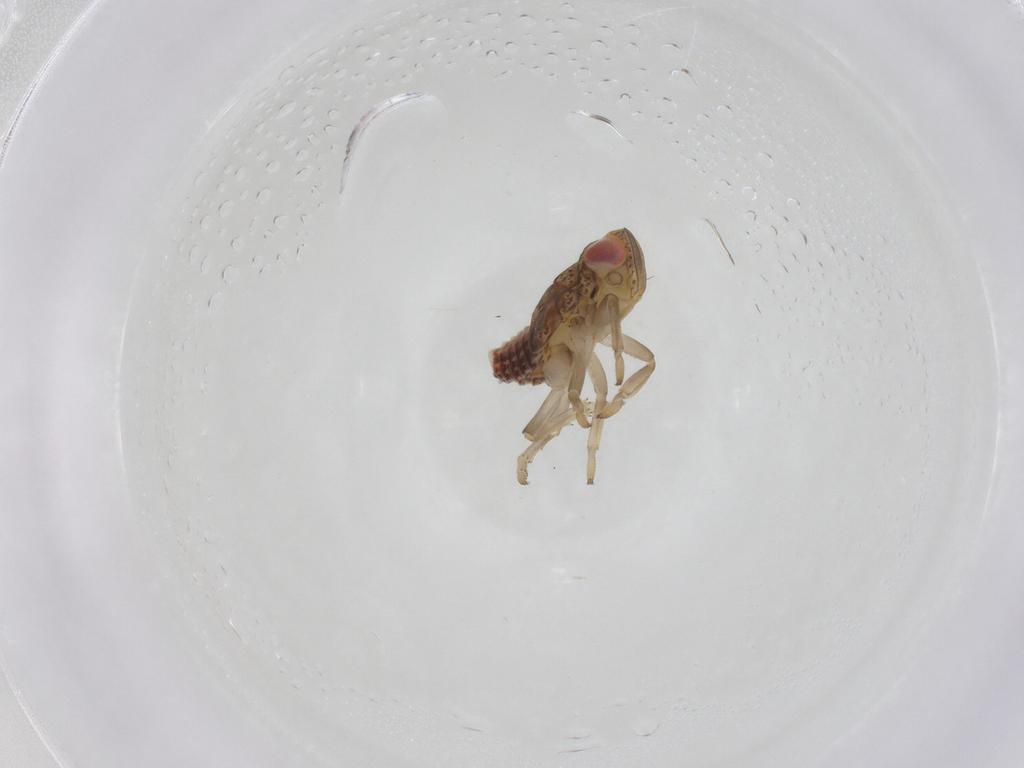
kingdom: Animalia
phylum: Arthropoda
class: Insecta
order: Hemiptera
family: Issidae
